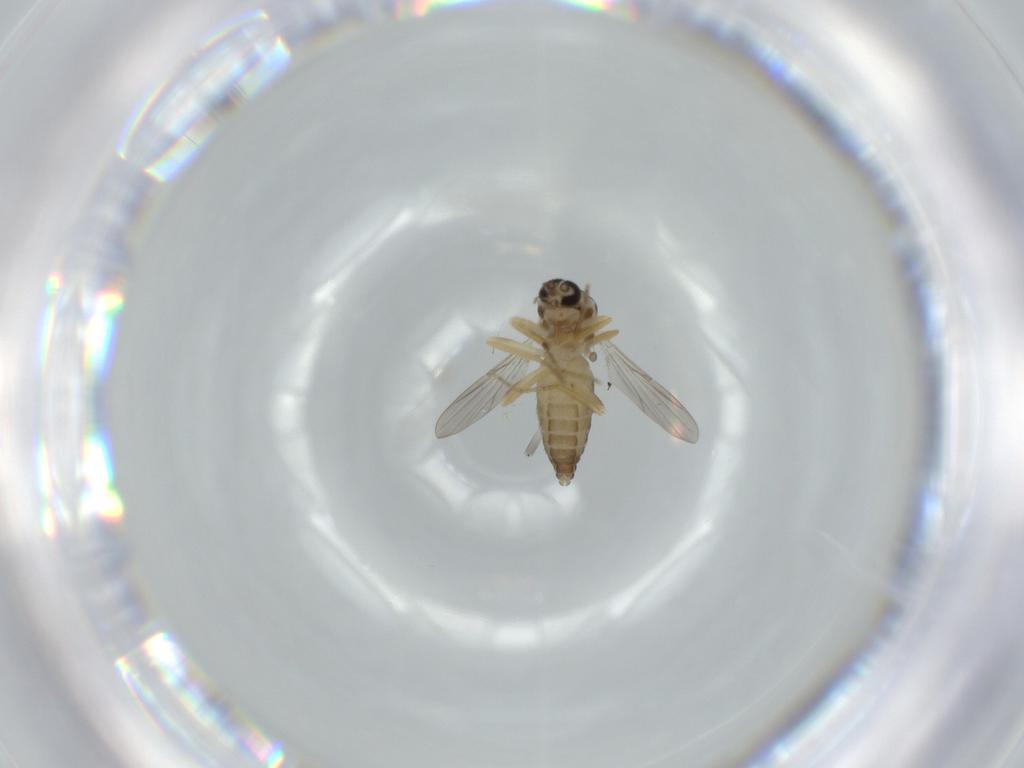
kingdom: Animalia
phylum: Arthropoda
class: Insecta
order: Diptera
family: Ceratopogonidae
